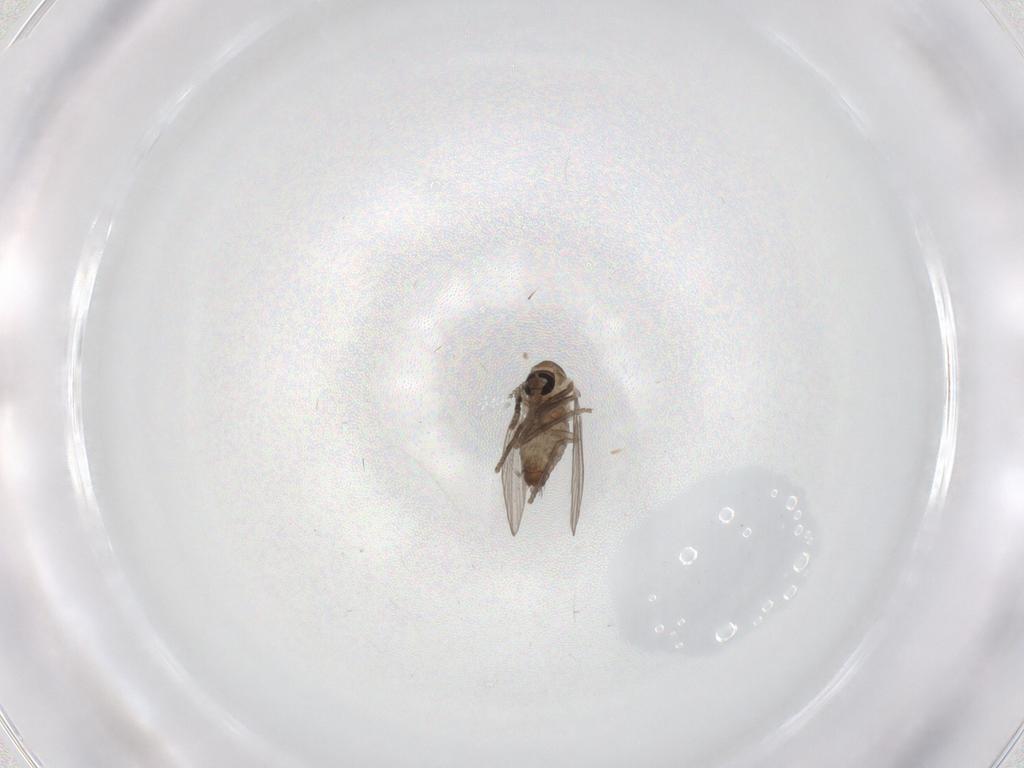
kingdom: Animalia
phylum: Arthropoda
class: Insecta
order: Diptera
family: Psychodidae
